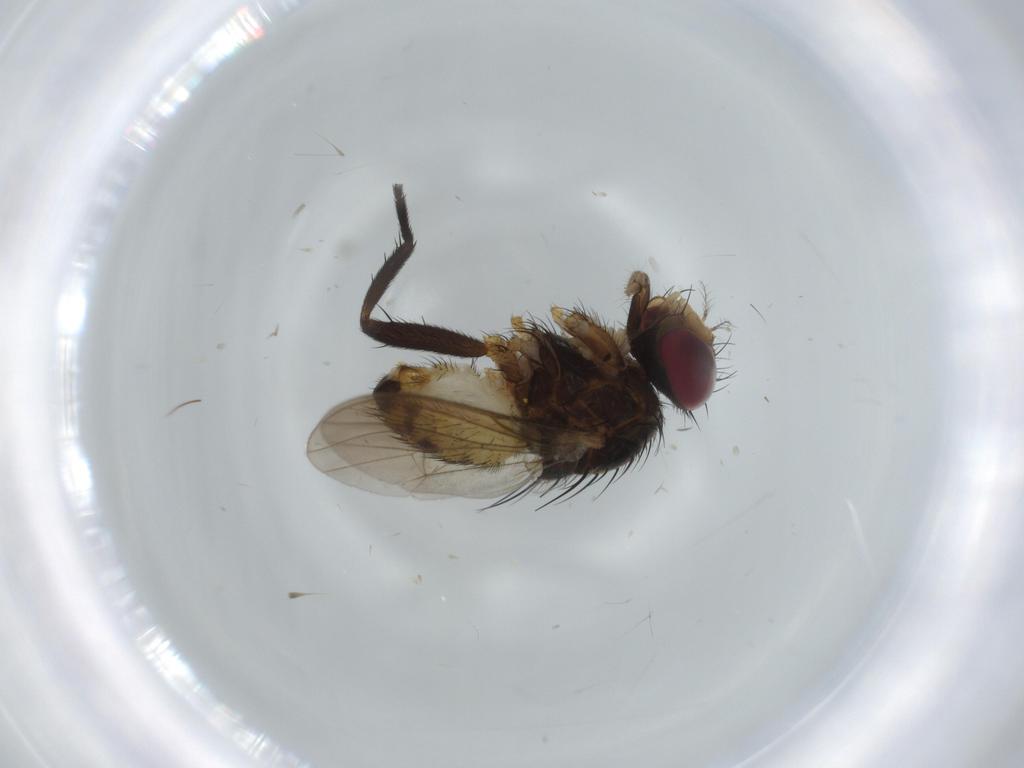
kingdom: Animalia
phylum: Arthropoda
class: Insecta
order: Diptera
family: Anthomyiidae
